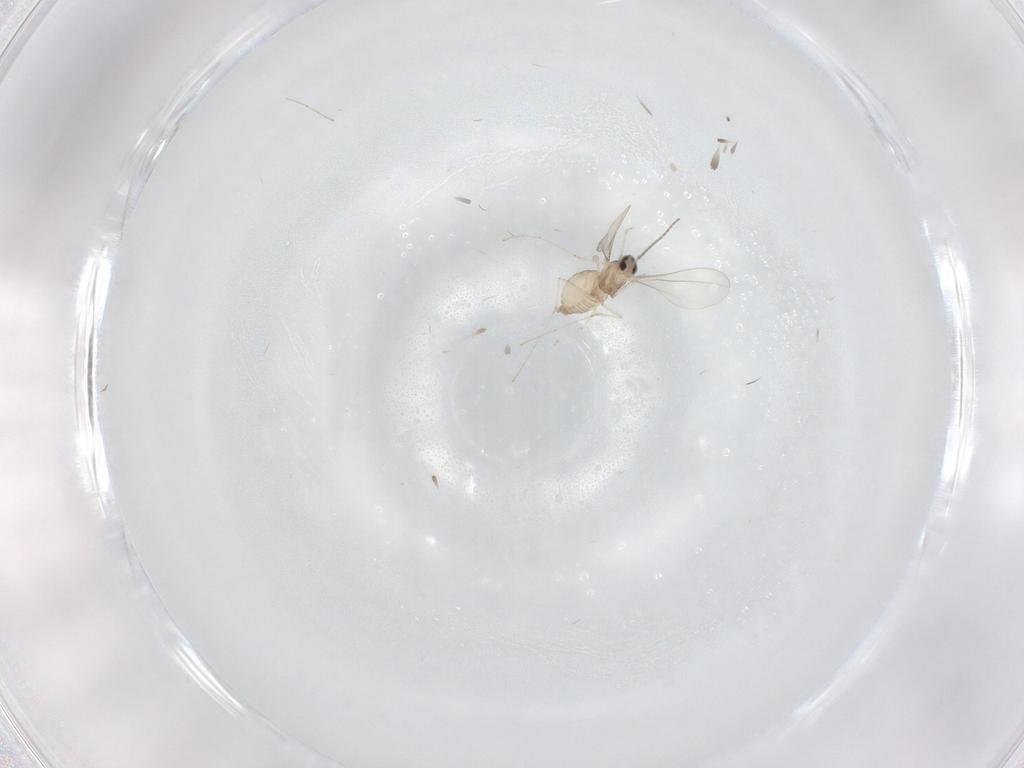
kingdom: Animalia
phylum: Arthropoda
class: Insecta
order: Diptera
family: Cecidomyiidae
